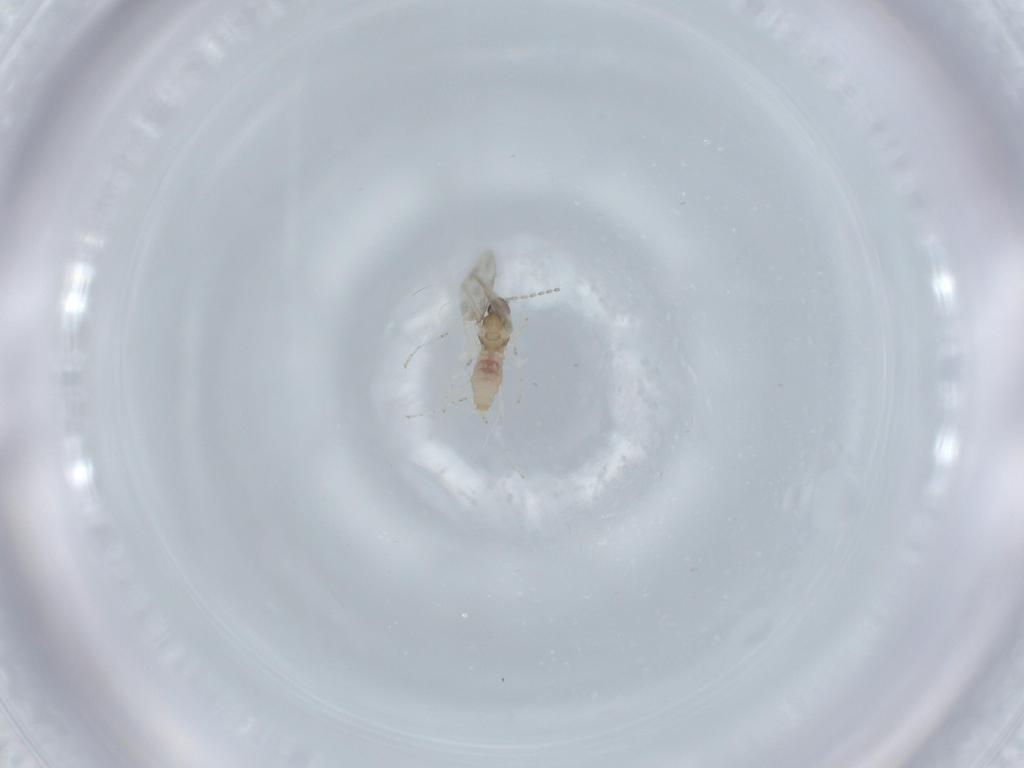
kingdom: Animalia
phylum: Arthropoda
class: Insecta
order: Diptera
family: Cecidomyiidae
